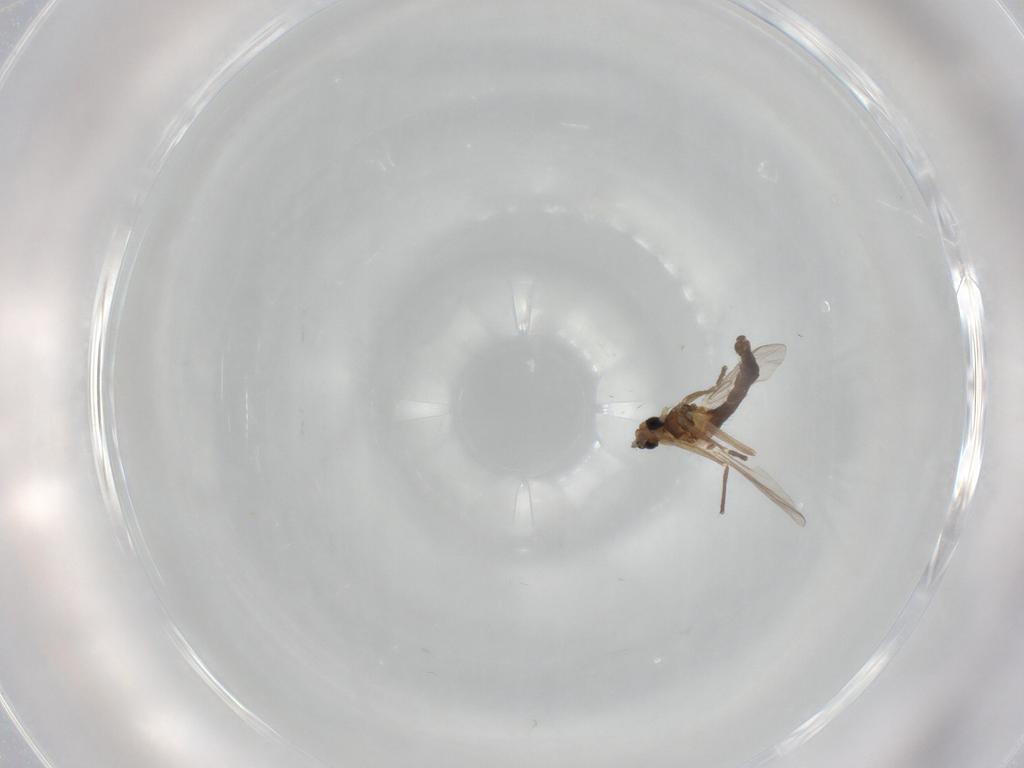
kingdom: Animalia
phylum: Arthropoda
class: Insecta
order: Diptera
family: Chironomidae
